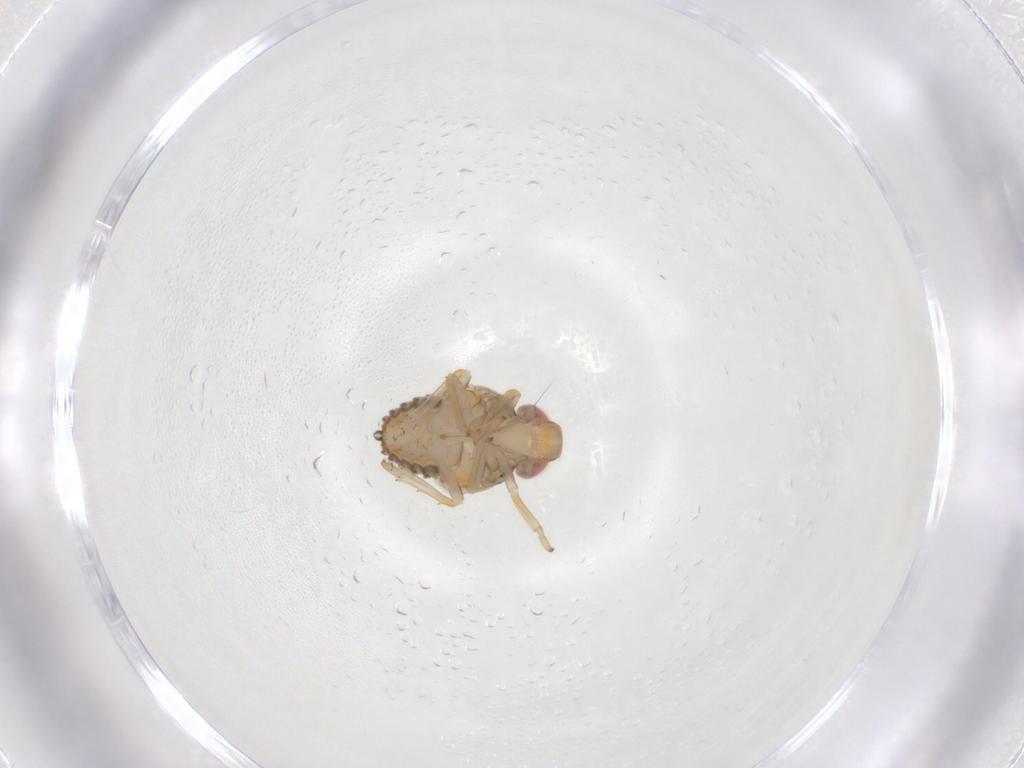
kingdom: Animalia
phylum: Arthropoda
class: Insecta
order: Hemiptera
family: Issidae
